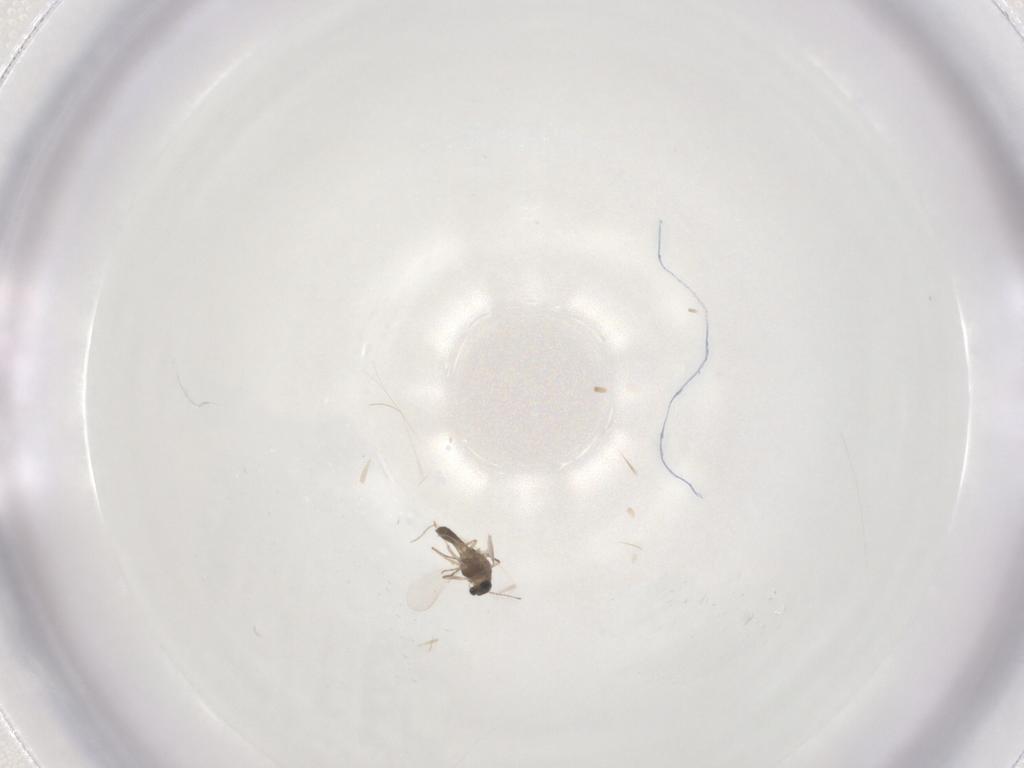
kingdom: Animalia
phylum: Arthropoda
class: Insecta
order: Diptera
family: Chironomidae
